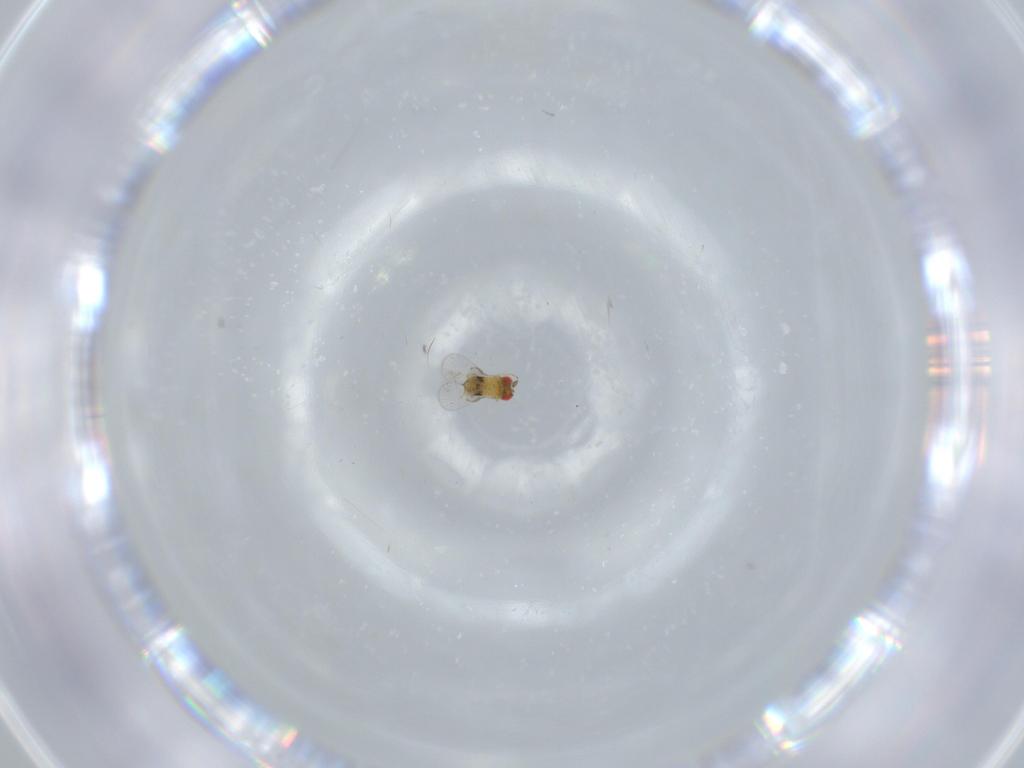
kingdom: Animalia
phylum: Arthropoda
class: Insecta
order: Hymenoptera
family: Trichogrammatidae
